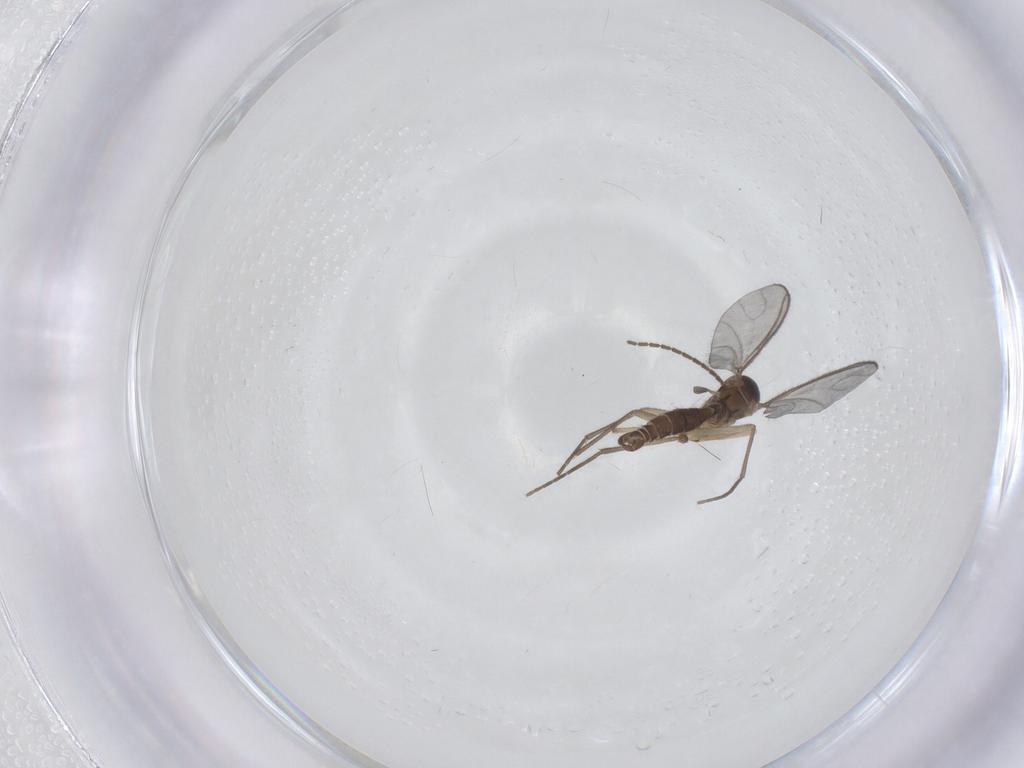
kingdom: Animalia
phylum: Arthropoda
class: Insecta
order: Diptera
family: Sciaridae
